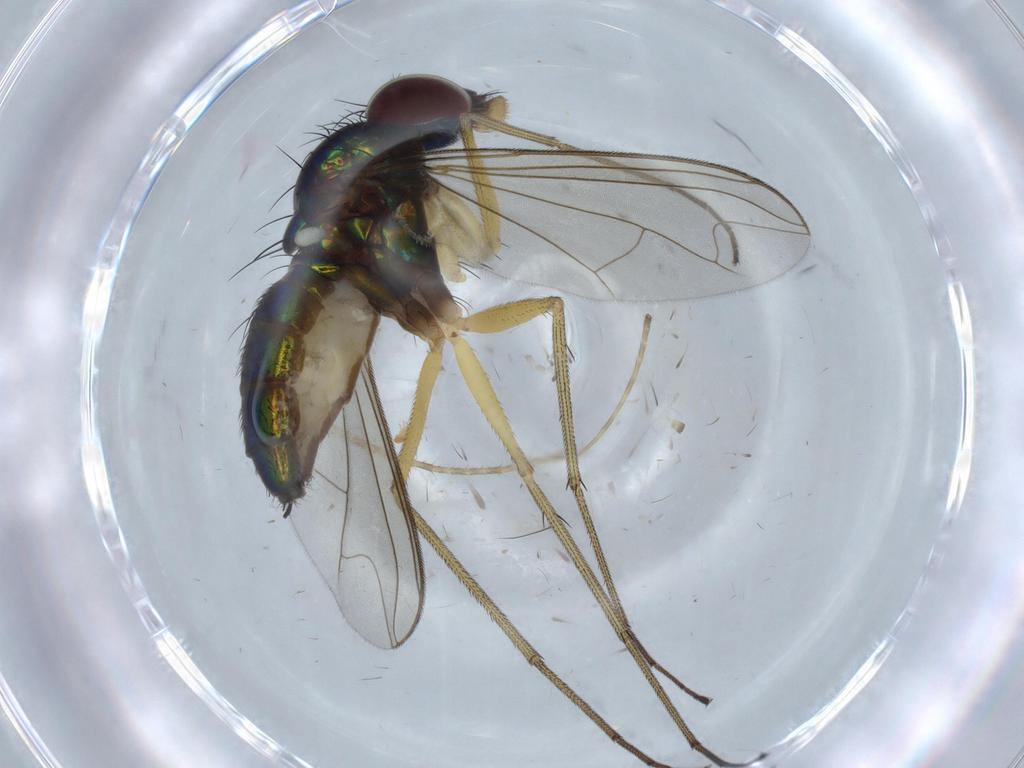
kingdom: Animalia
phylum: Arthropoda
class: Insecta
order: Diptera
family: Dolichopodidae
